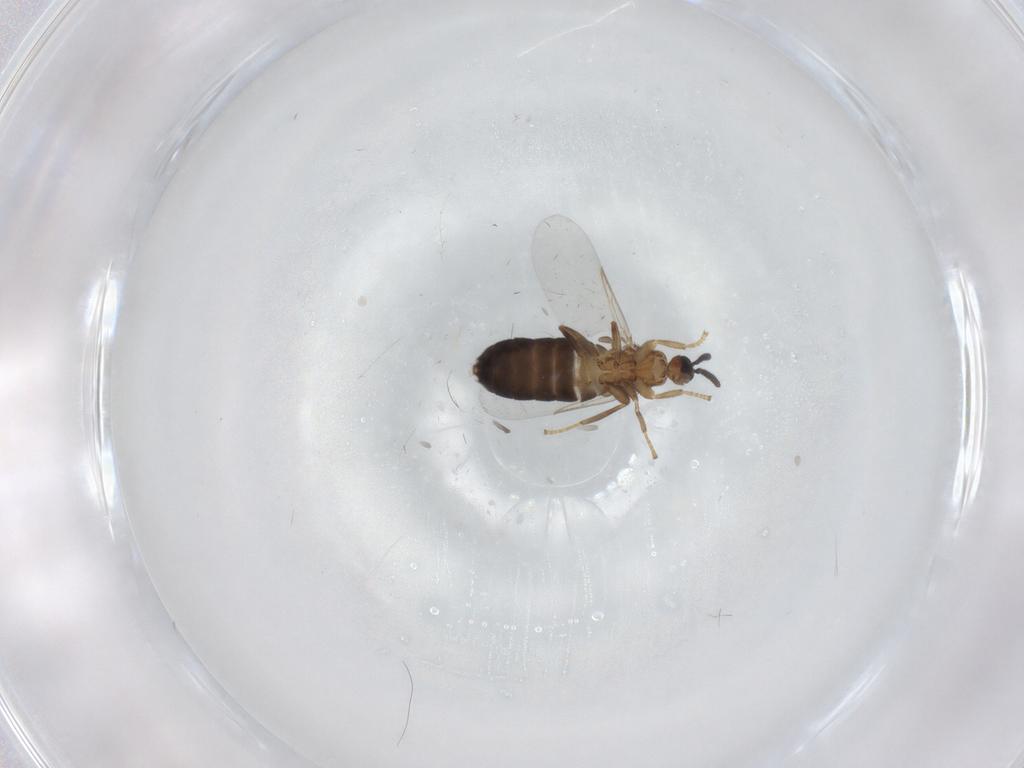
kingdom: Animalia
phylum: Arthropoda
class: Insecta
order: Diptera
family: Scatopsidae
